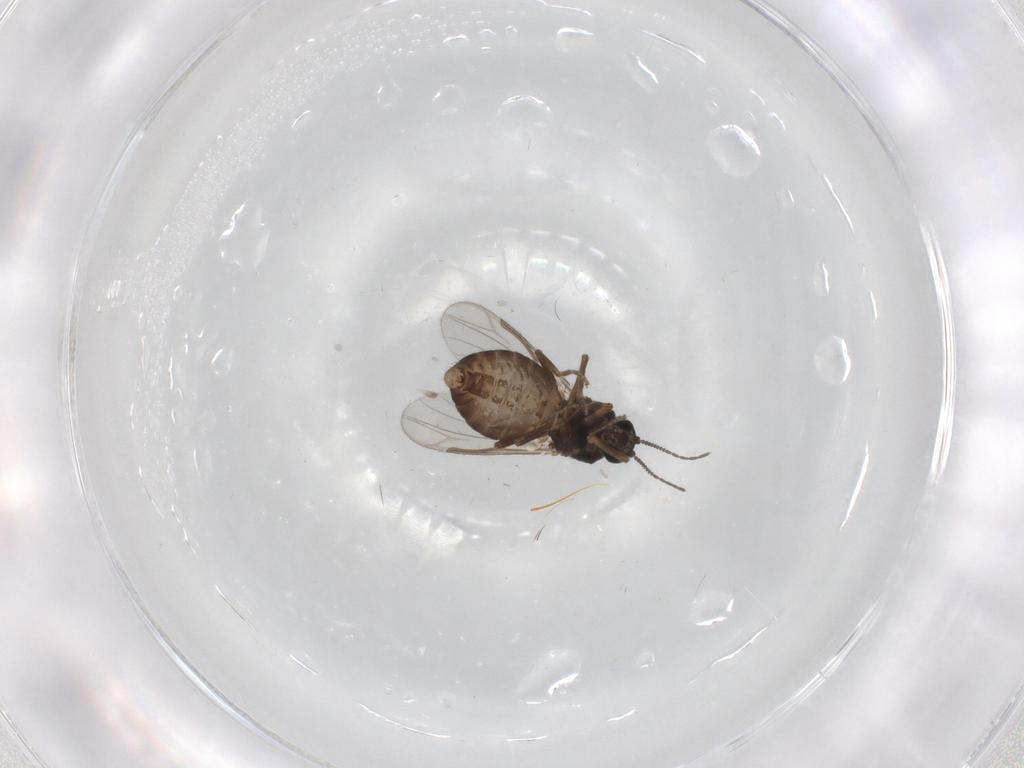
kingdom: Animalia
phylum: Arthropoda
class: Insecta
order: Diptera
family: Ceratopogonidae
